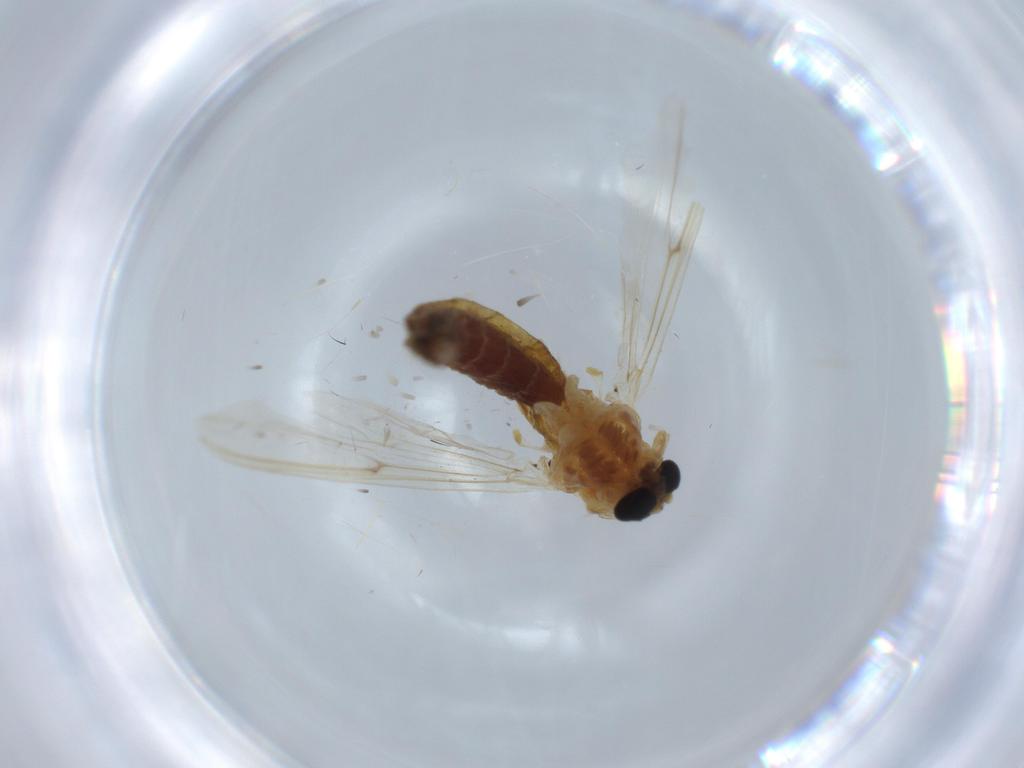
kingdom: Animalia
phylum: Arthropoda
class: Insecta
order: Diptera
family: Chironomidae
